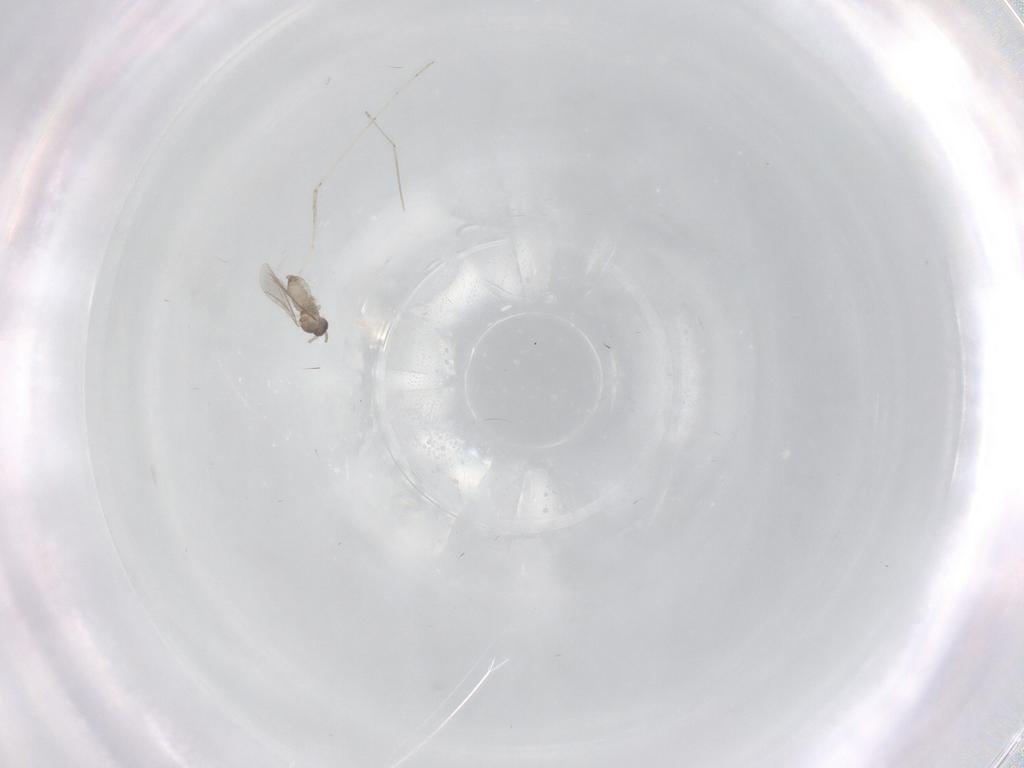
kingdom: Animalia
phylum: Arthropoda
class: Insecta
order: Diptera
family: Cecidomyiidae
